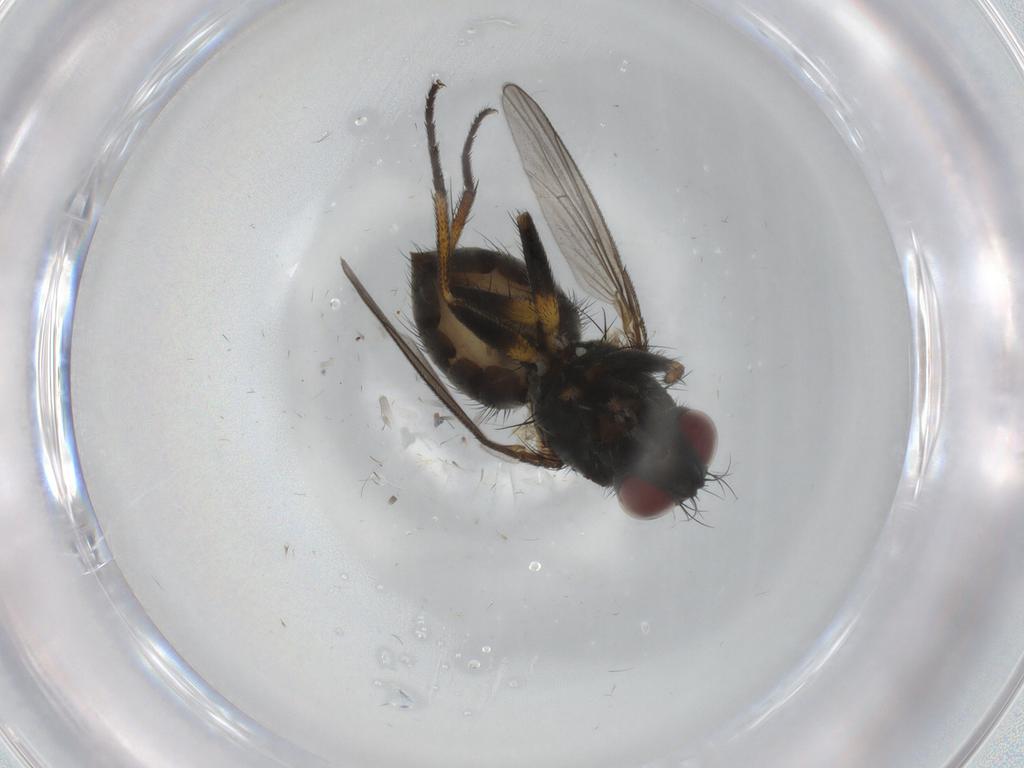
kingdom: Animalia
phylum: Arthropoda
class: Insecta
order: Diptera
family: Muscidae
